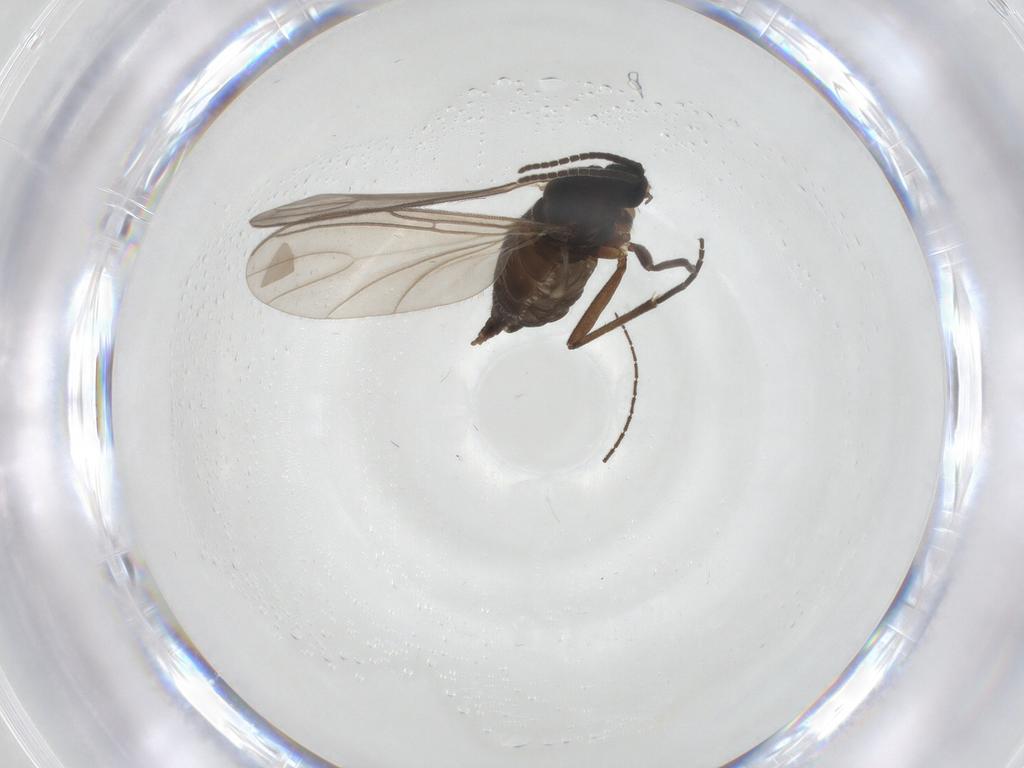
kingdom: Animalia
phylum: Arthropoda
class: Insecta
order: Diptera
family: Sciaridae
